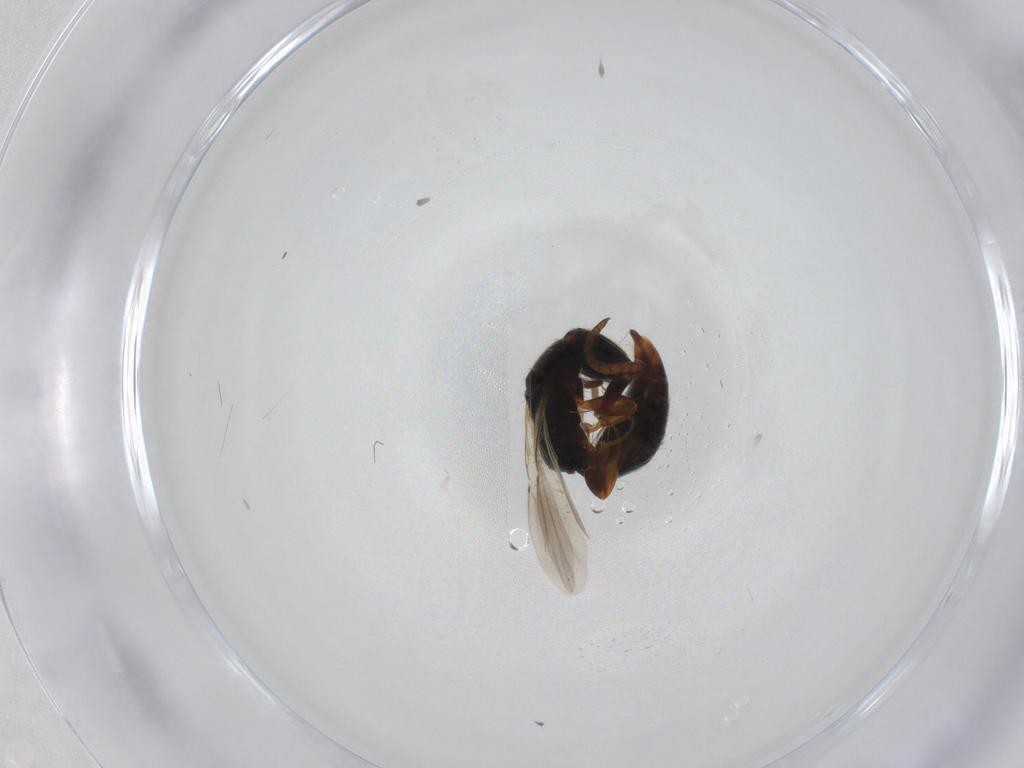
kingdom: Animalia
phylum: Arthropoda
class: Insecta
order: Hymenoptera
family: Bethylidae
